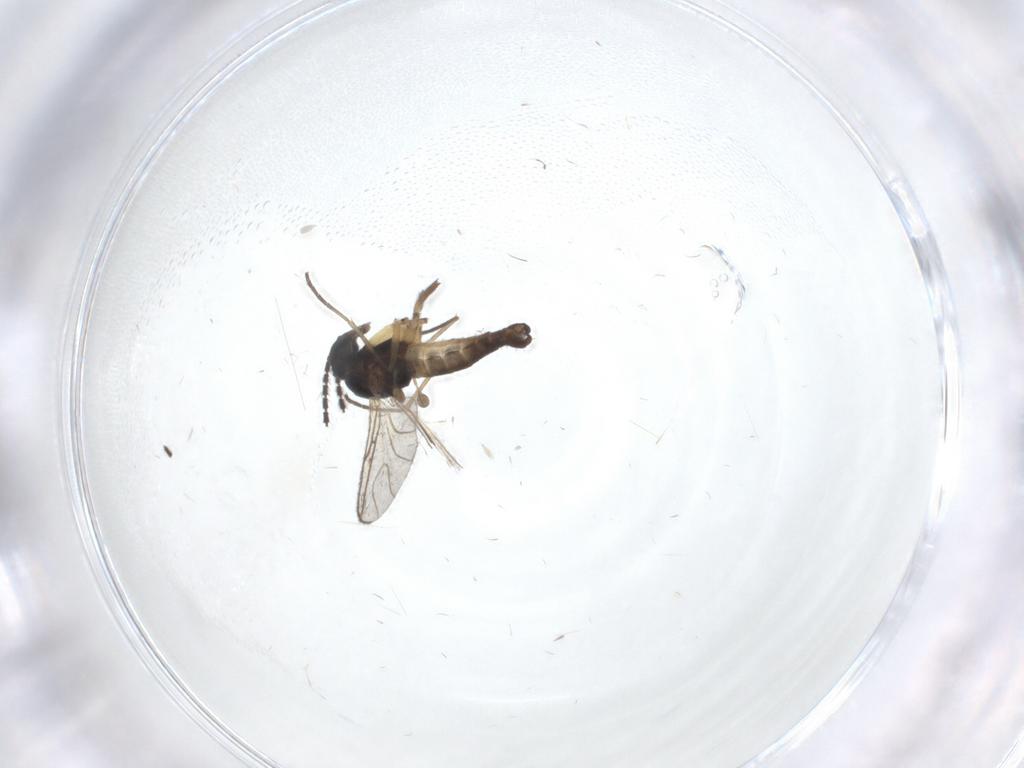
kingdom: Animalia
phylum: Arthropoda
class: Insecta
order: Diptera
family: Sciaridae
